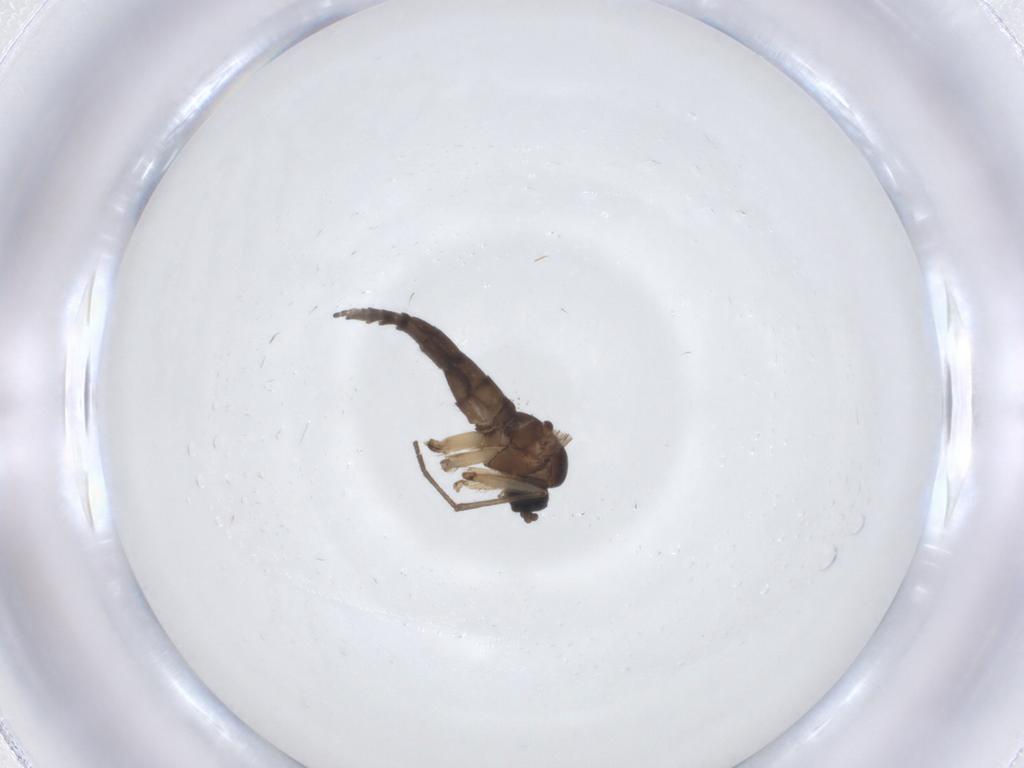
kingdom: Animalia
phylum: Arthropoda
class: Insecta
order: Diptera
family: Sciaridae
